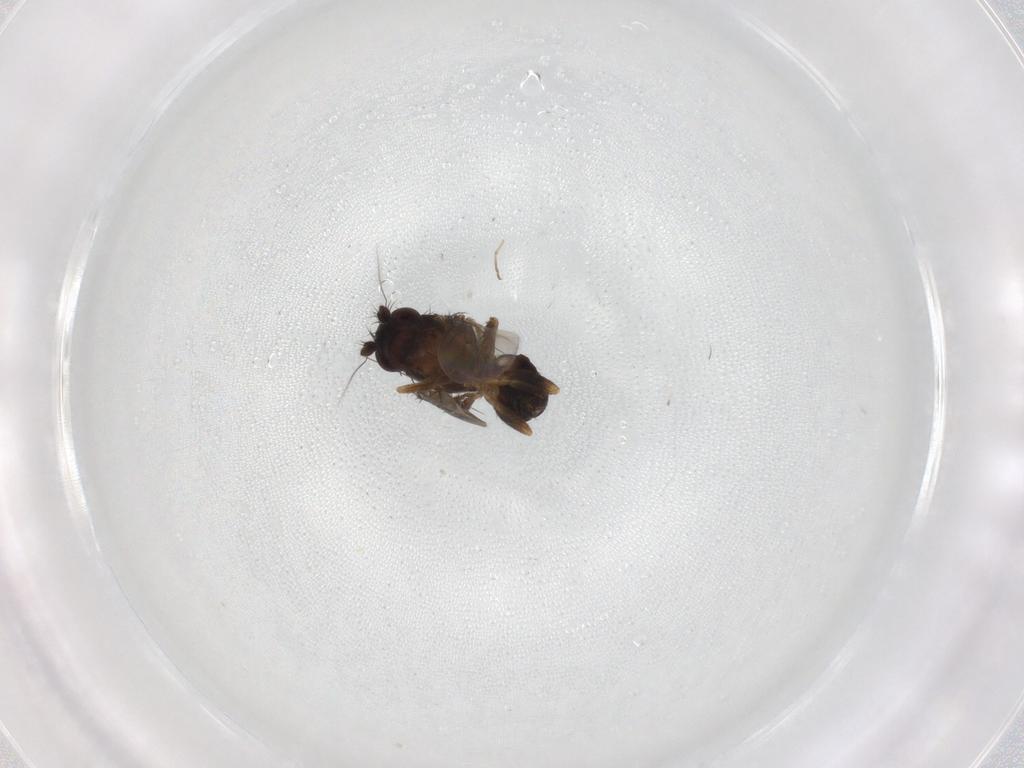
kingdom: Animalia
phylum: Arthropoda
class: Insecta
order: Diptera
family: Sphaeroceridae
